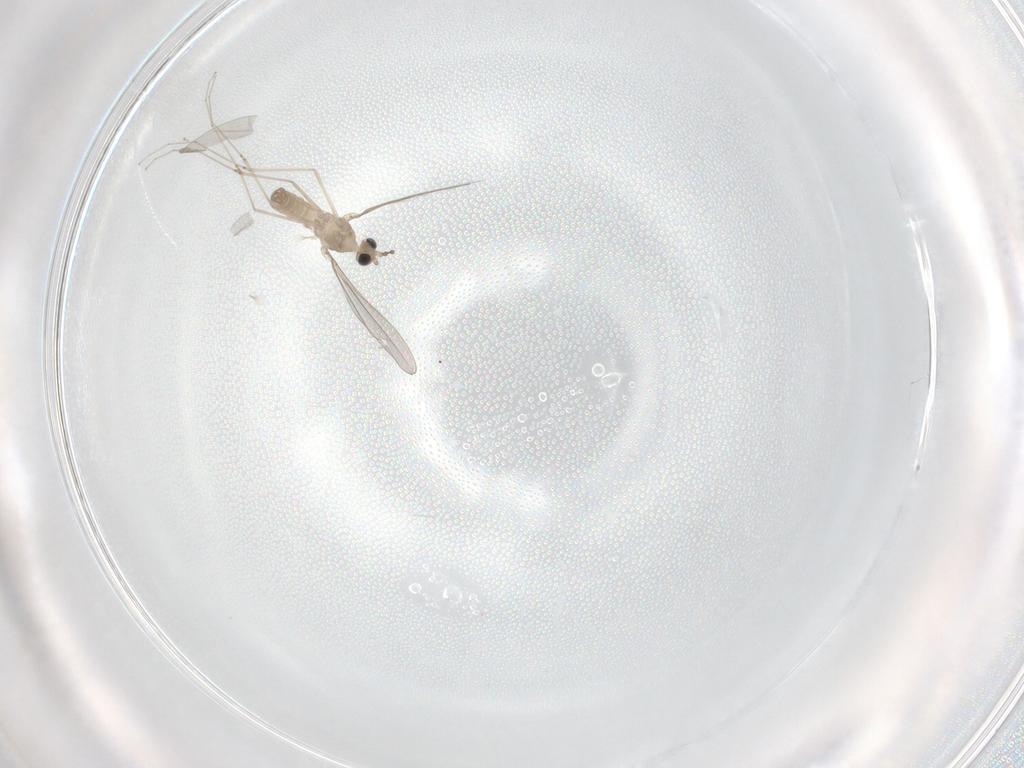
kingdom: Animalia
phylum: Arthropoda
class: Insecta
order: Diptera
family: Cecidomyiidae
